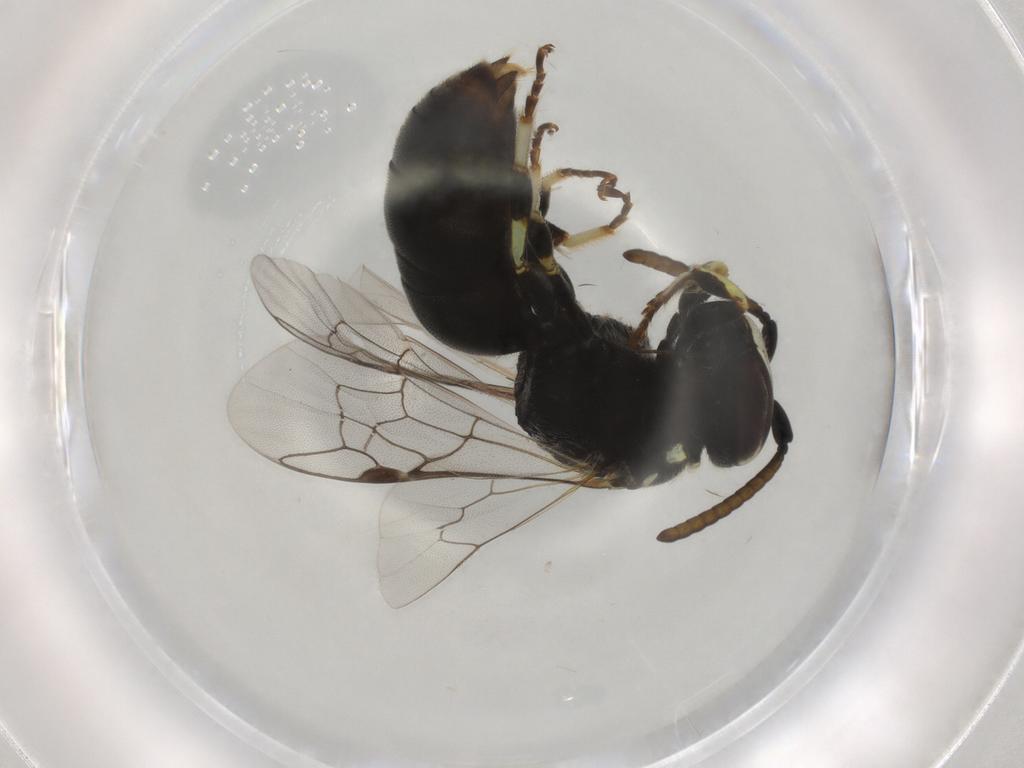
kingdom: Animalia
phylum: Arthropoda
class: Insecta
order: Hymenoptera
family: Colletidae
